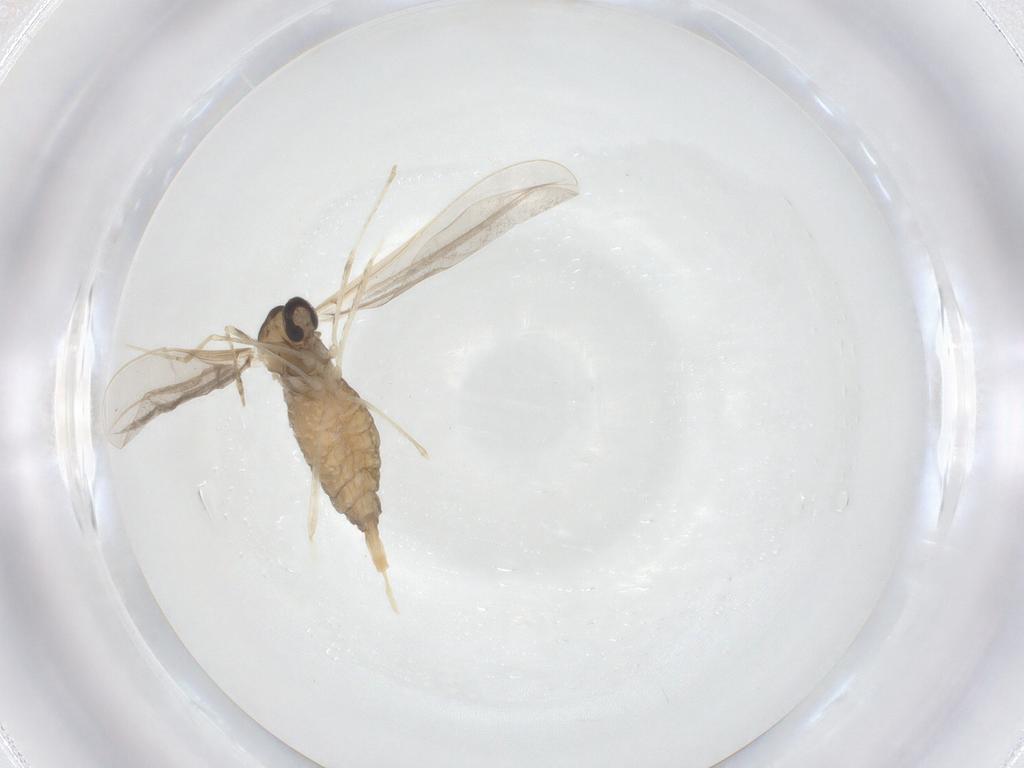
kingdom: Animalia
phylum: Arthropoda
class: Insecta
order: Diptera
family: Cecidomyiidae
